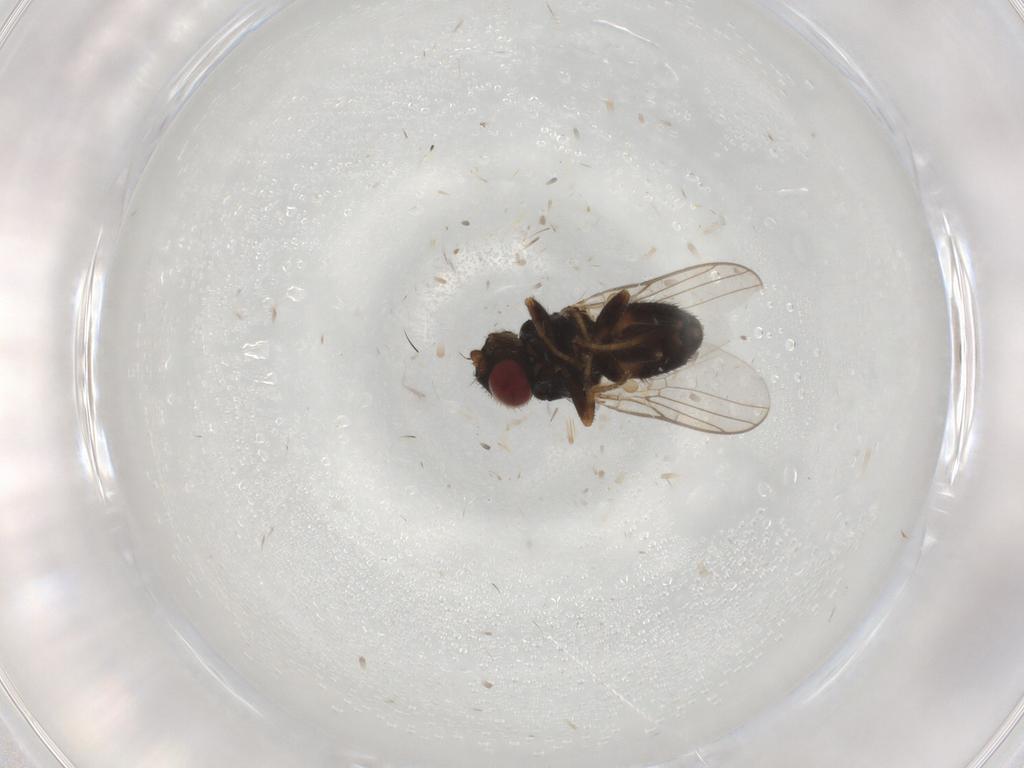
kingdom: Animalia
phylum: Arthropoda
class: Insecta
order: Diptera
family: Chloropidae
